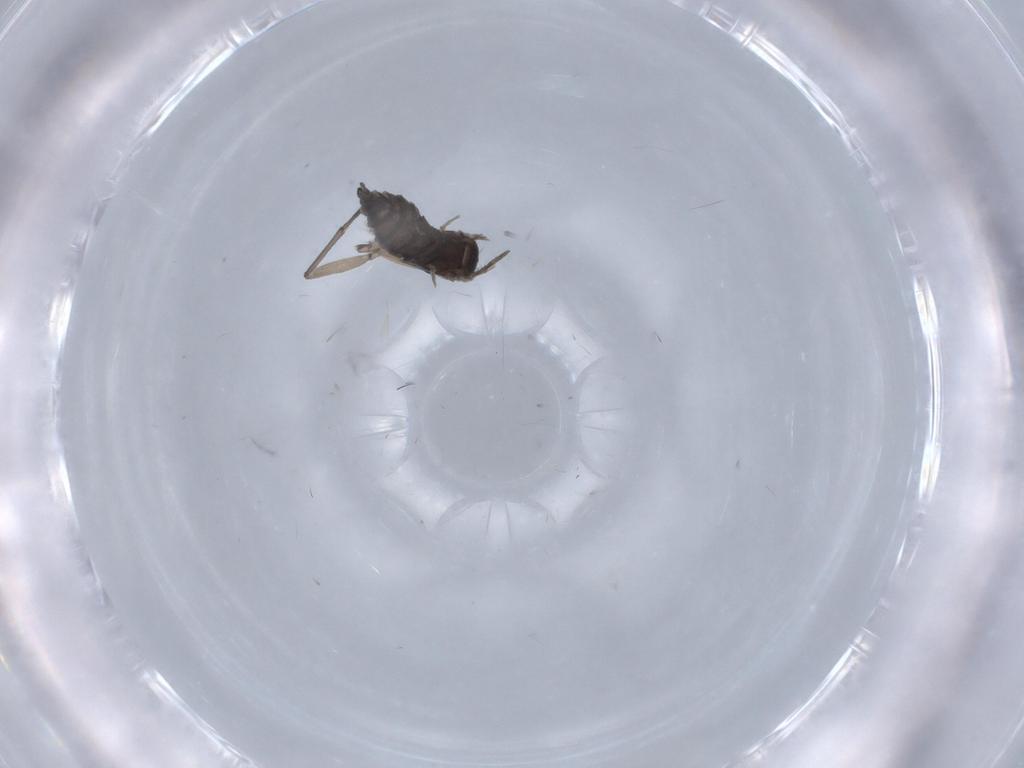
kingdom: Animalia
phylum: Arthropoda
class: Insecta
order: Diptera
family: Culicidae
